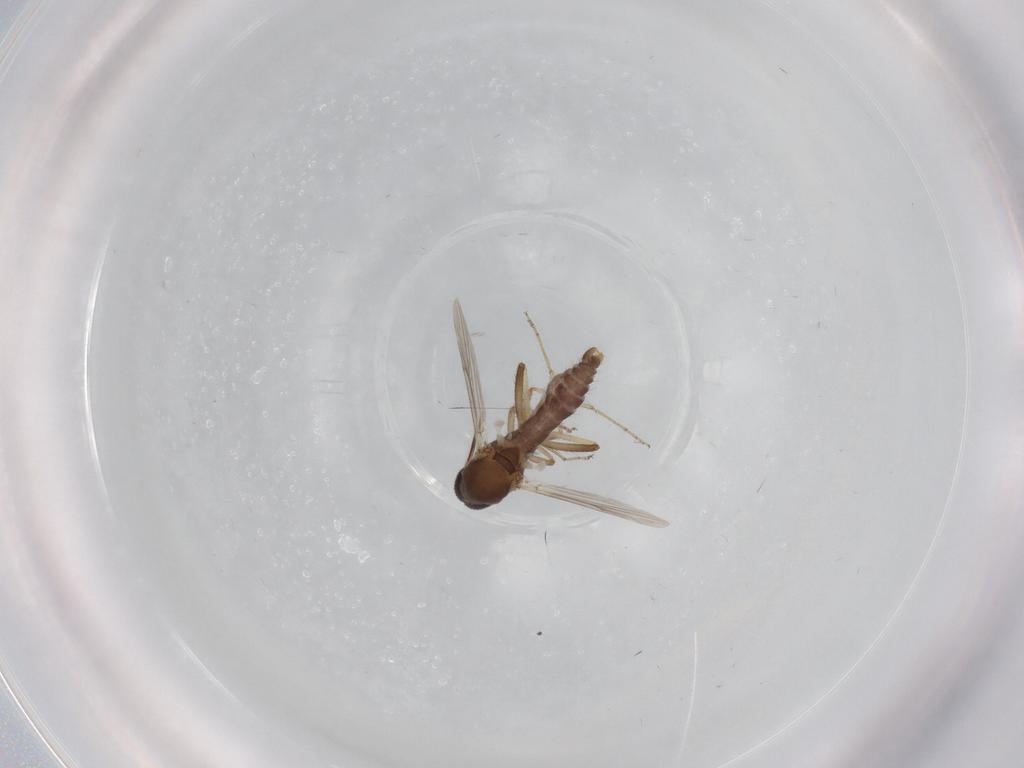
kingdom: Animalia
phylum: Arthropoda
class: Insecta
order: Diptera
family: Ceratopogonidae
